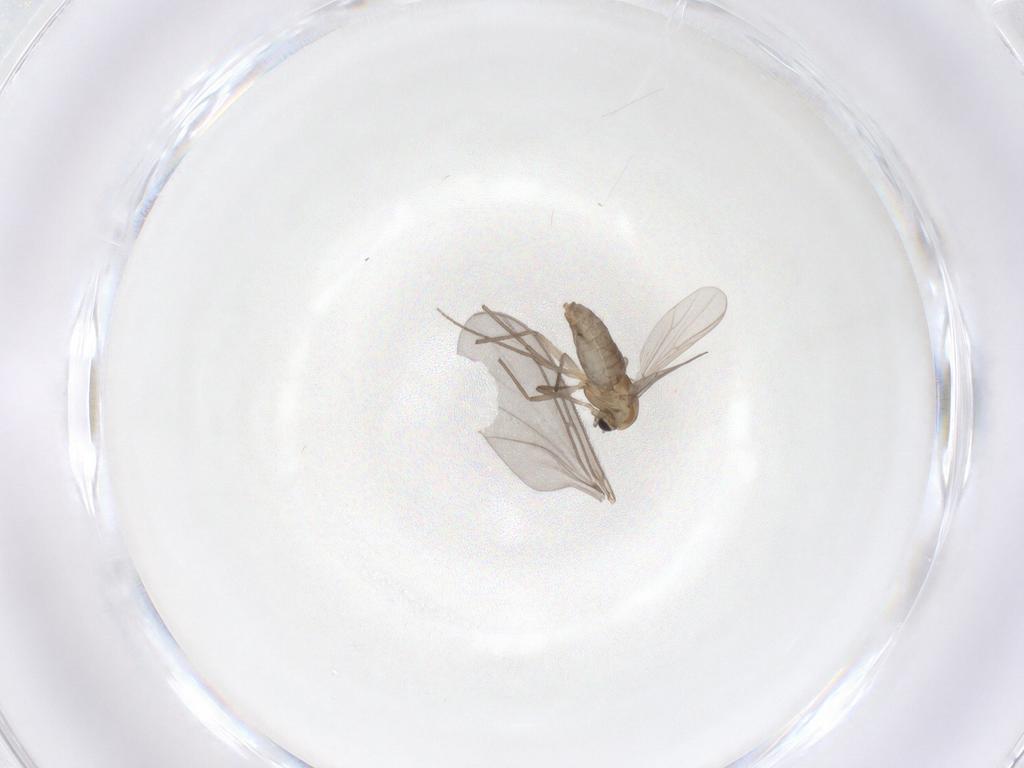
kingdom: Animalia
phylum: Arthropoda
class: Insecta
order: Diptera
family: Chironomidae
